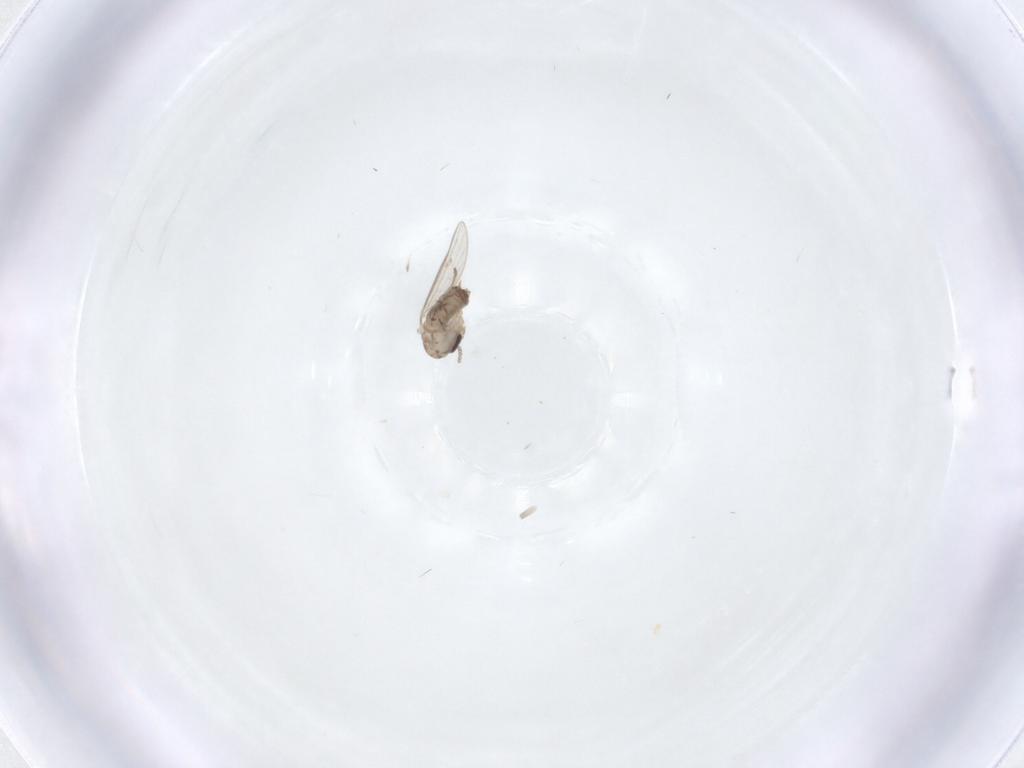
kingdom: Animalia
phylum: Arthropoda
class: Insecta
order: Diptera
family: Psychodidae
